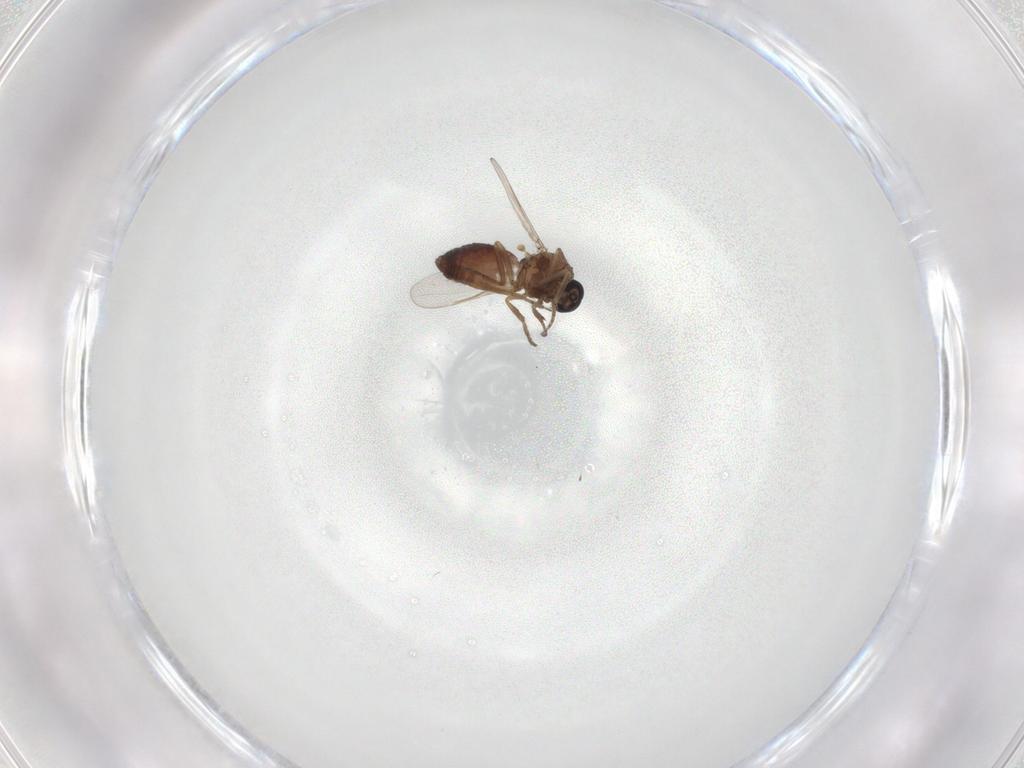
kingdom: Animalia
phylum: Arthropoda
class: Insecta
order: Diptera
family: Ceratopogonidae
